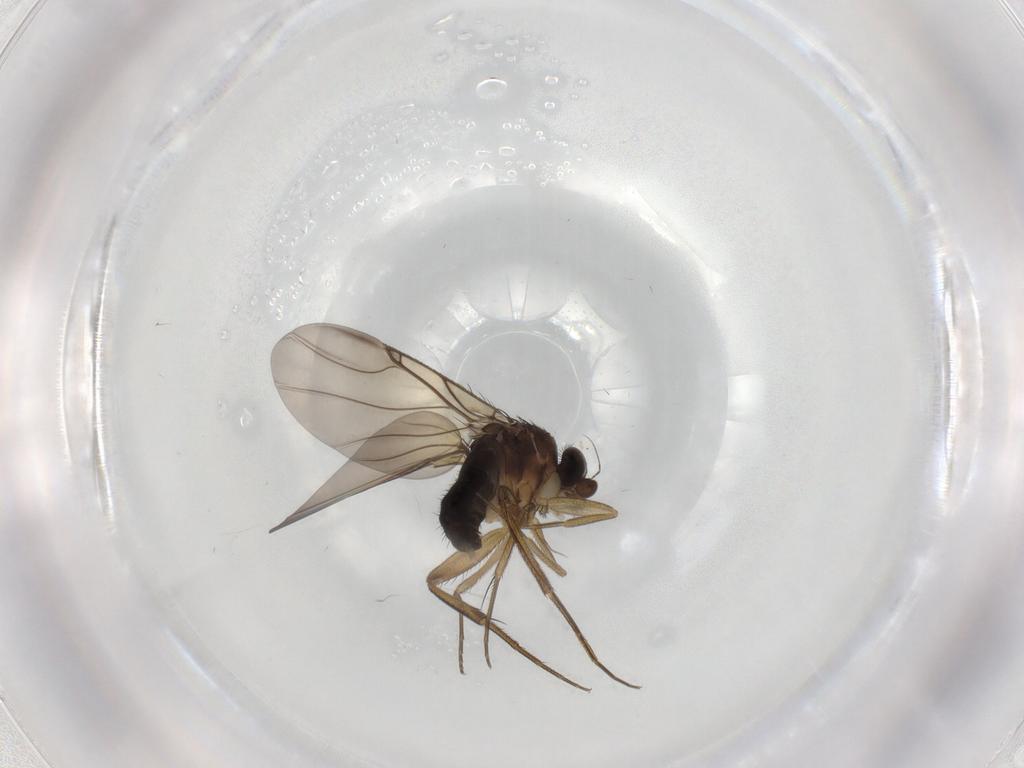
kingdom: Animalia
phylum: Arthropoda
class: Insecta
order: Diptera
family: Phoridae
